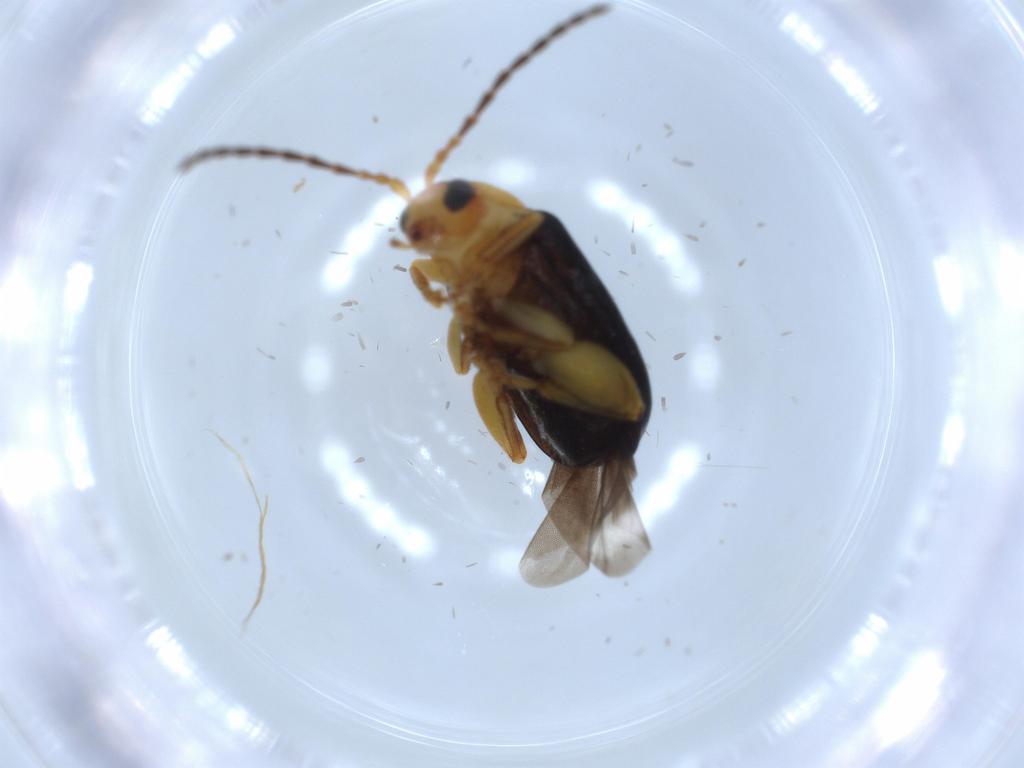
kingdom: Animalia
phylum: Arthropoda
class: Insecta
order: Coleoptera
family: Chrysomelidae
